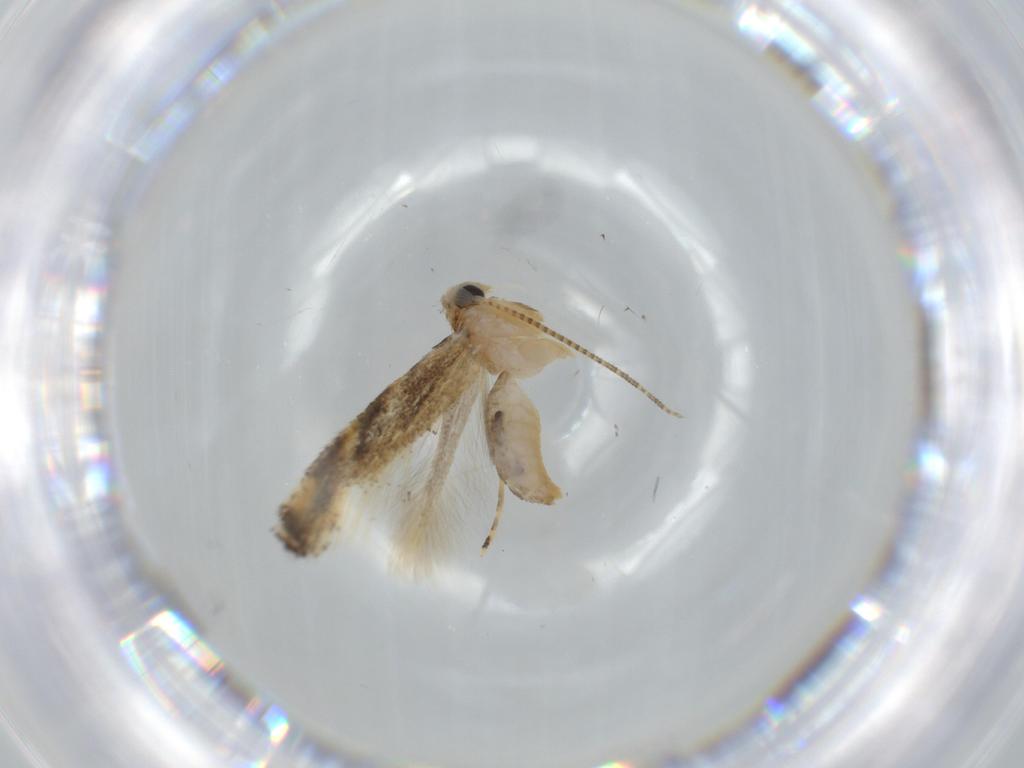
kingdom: Animalia
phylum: Arthropoda
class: Insecta
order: Lepidoptera
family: Bucculatricidae
